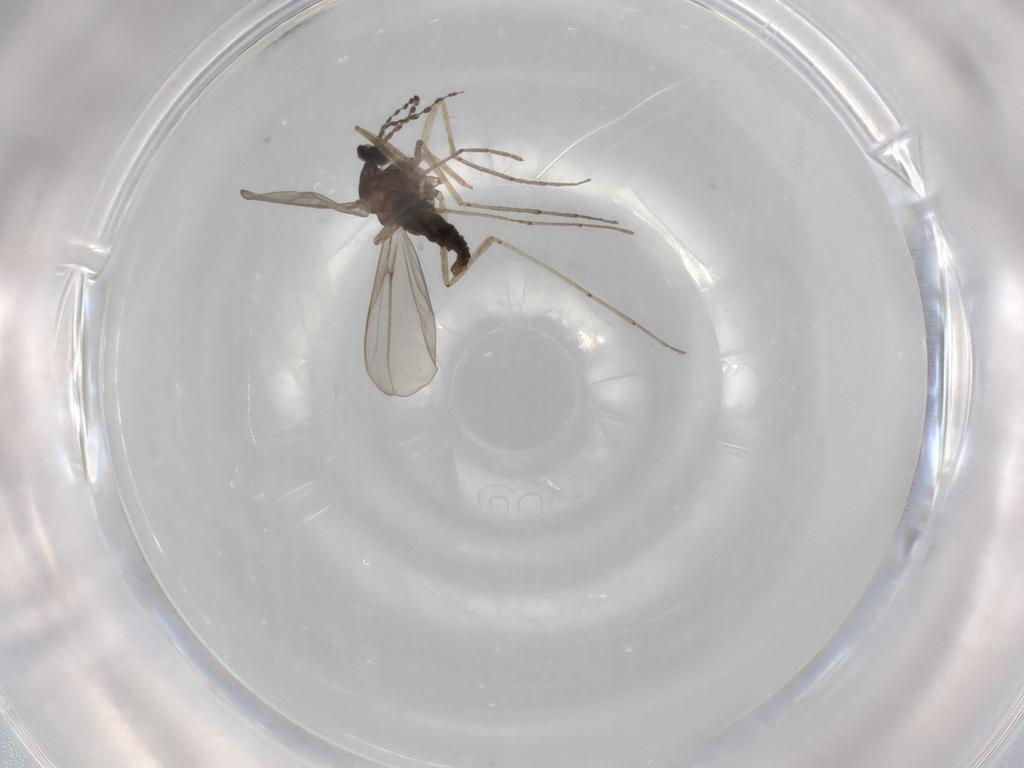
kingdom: Animalia
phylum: Arthropoda
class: Insecta
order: Diptera
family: Cecidomyiidae
